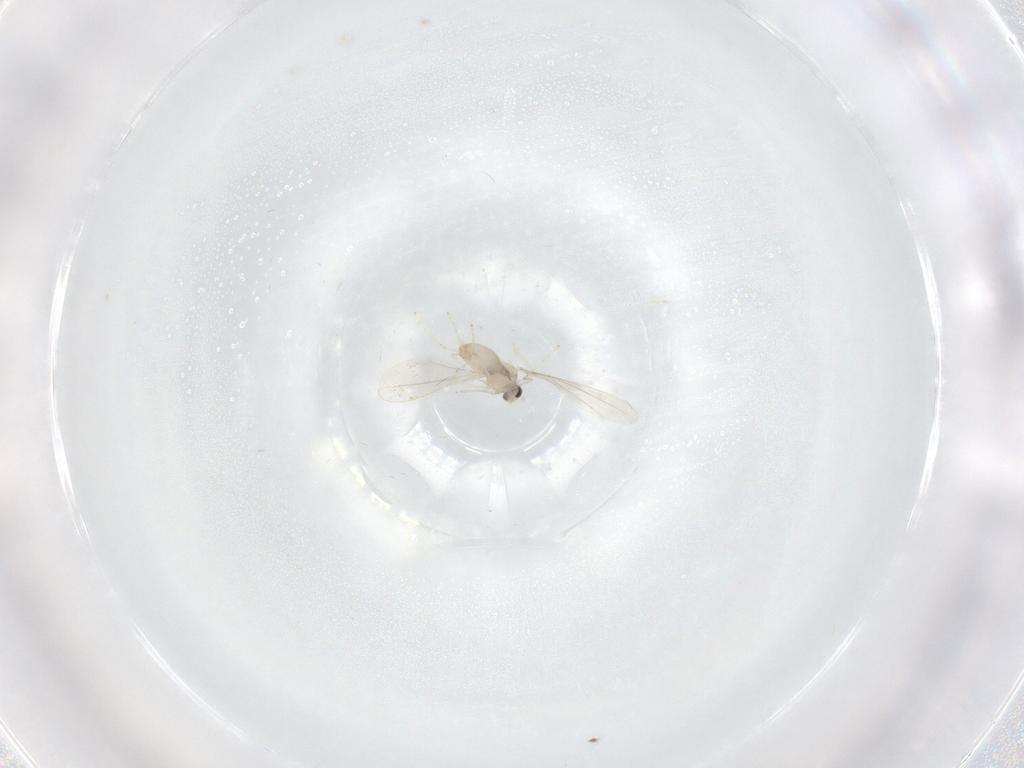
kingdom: Animalia
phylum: Arthropoda
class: Insecta
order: Diptera
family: Cecidomyiidae
